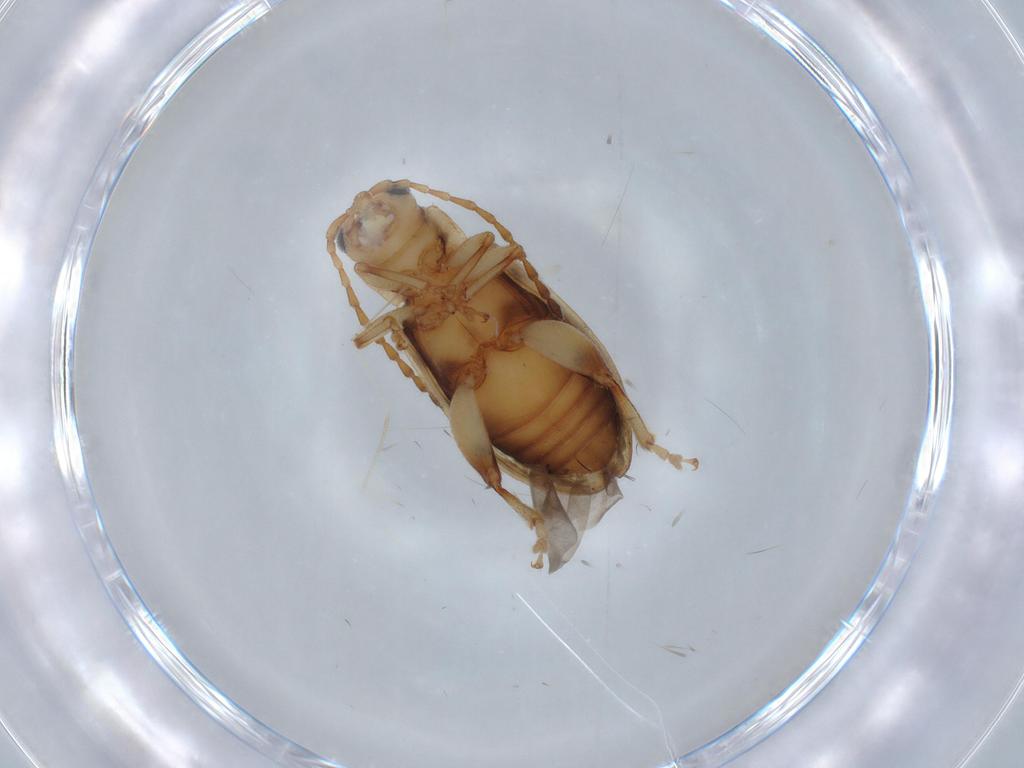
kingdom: Animalia
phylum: Arthropoda
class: Insecta
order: Coleoptera
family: Chrysomelidae
